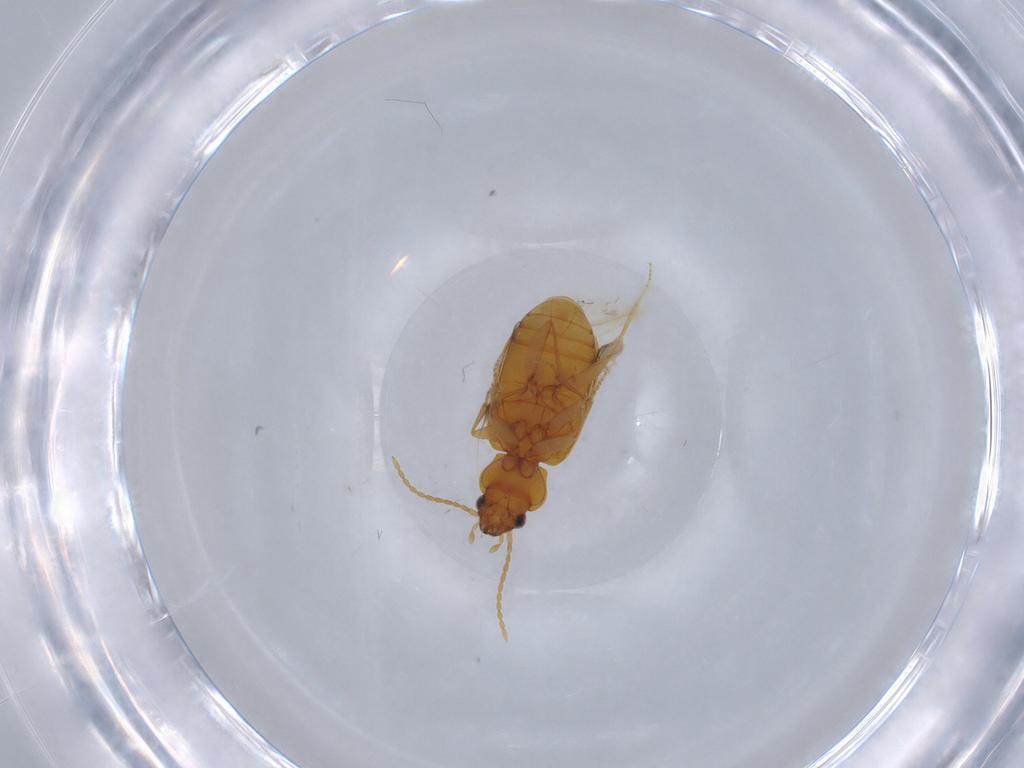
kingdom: Animalia
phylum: Arthropoda
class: Insecta
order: Coleoptera
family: Carabidae
